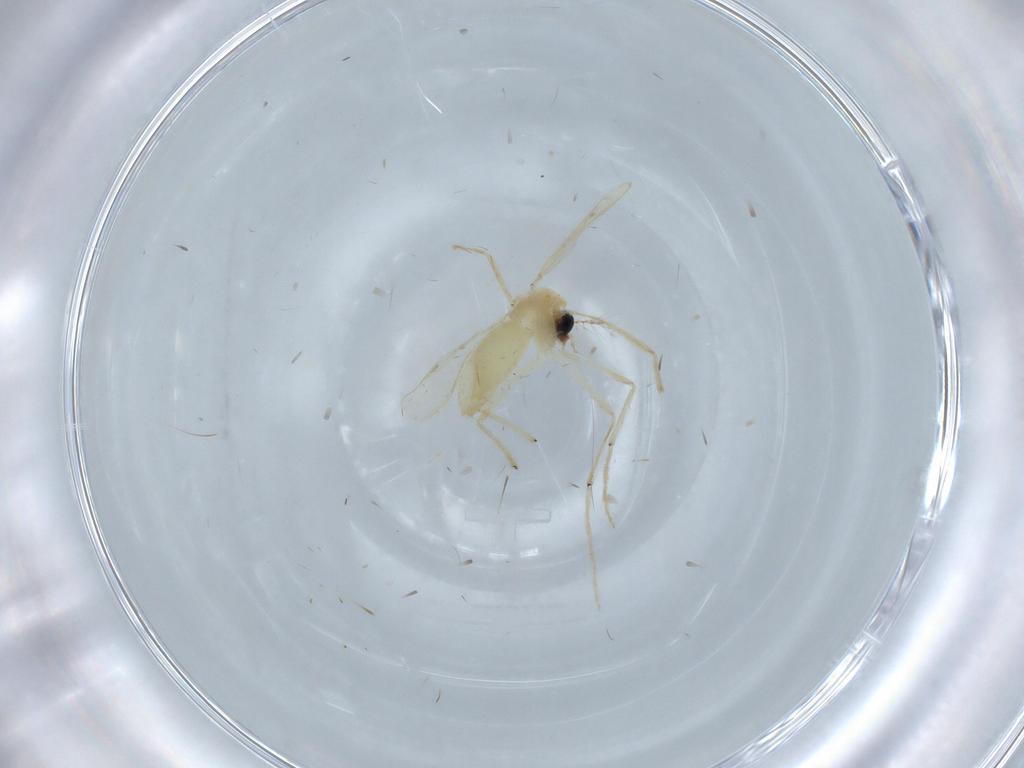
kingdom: Animalia
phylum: Arthropoda
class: Insecta
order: Diptera
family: Chironomidae
